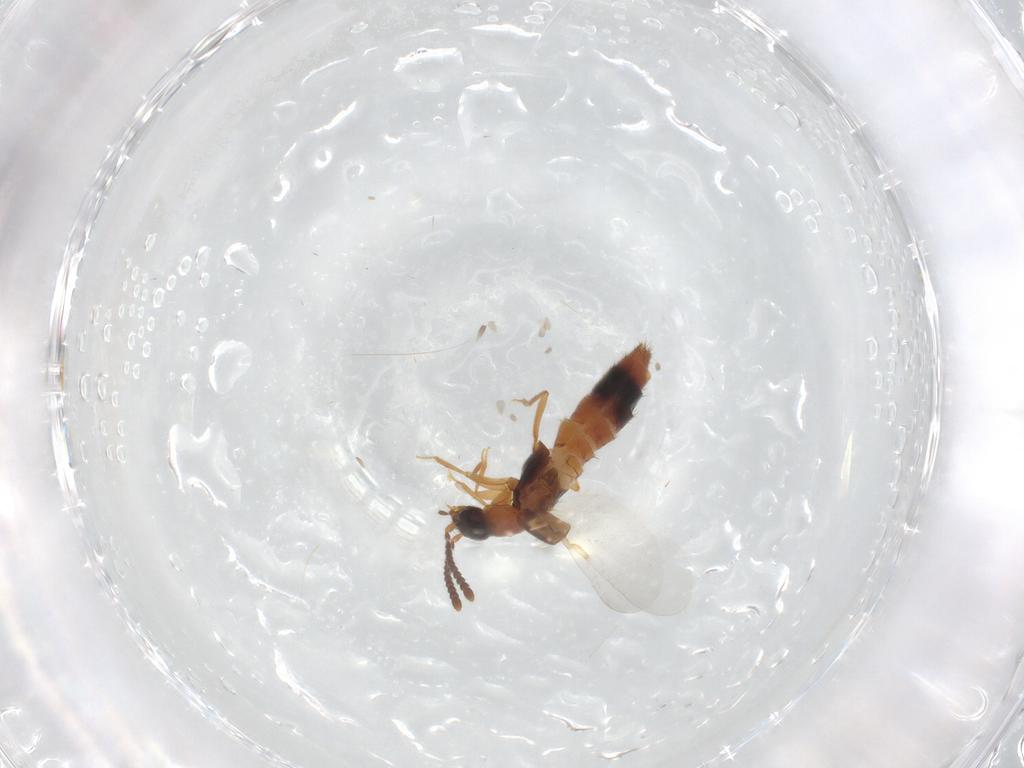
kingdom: Animalia
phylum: Arthropoda
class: Insecta
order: Coleoptera
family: Staphylinidae
